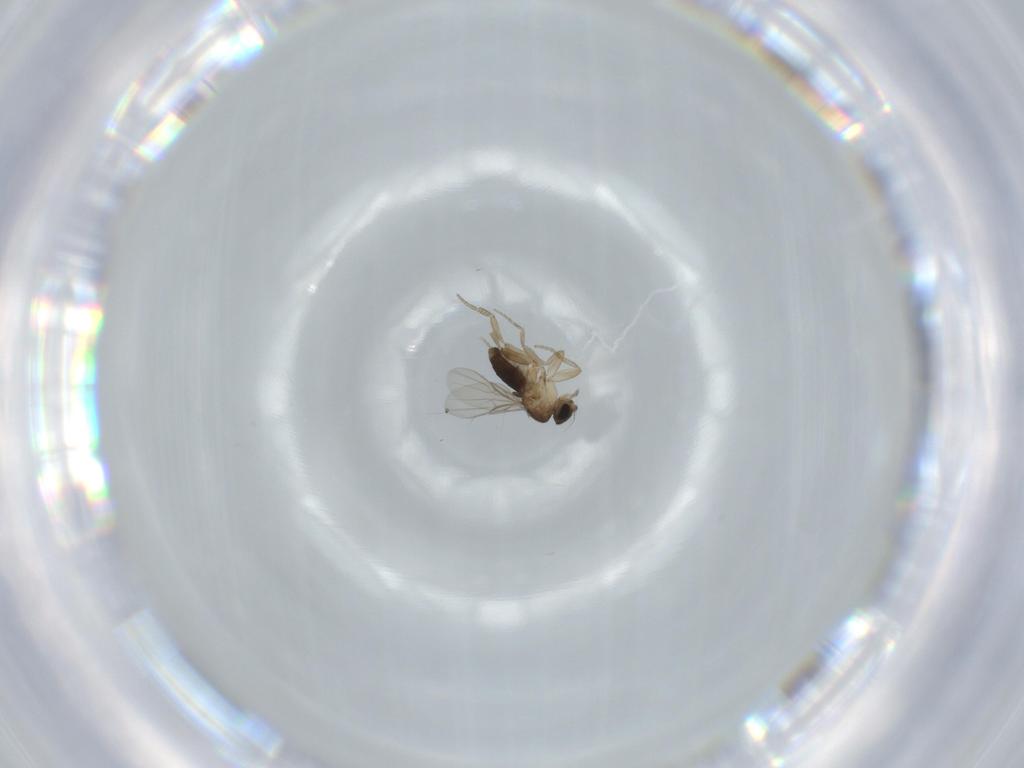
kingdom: Animalia
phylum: Arthropoda
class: Insecta
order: Diptera
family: Phoridae
